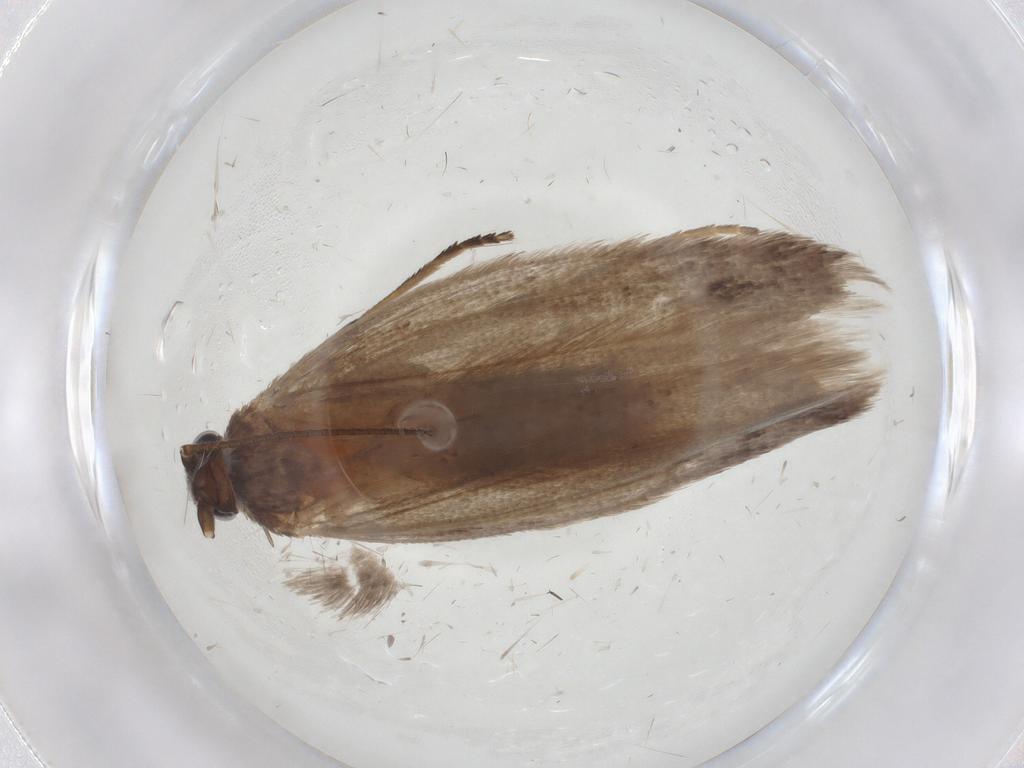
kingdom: Animalia
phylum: Arthropoda
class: Insecta
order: Lepidoptera
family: Roeslerstammiidae
